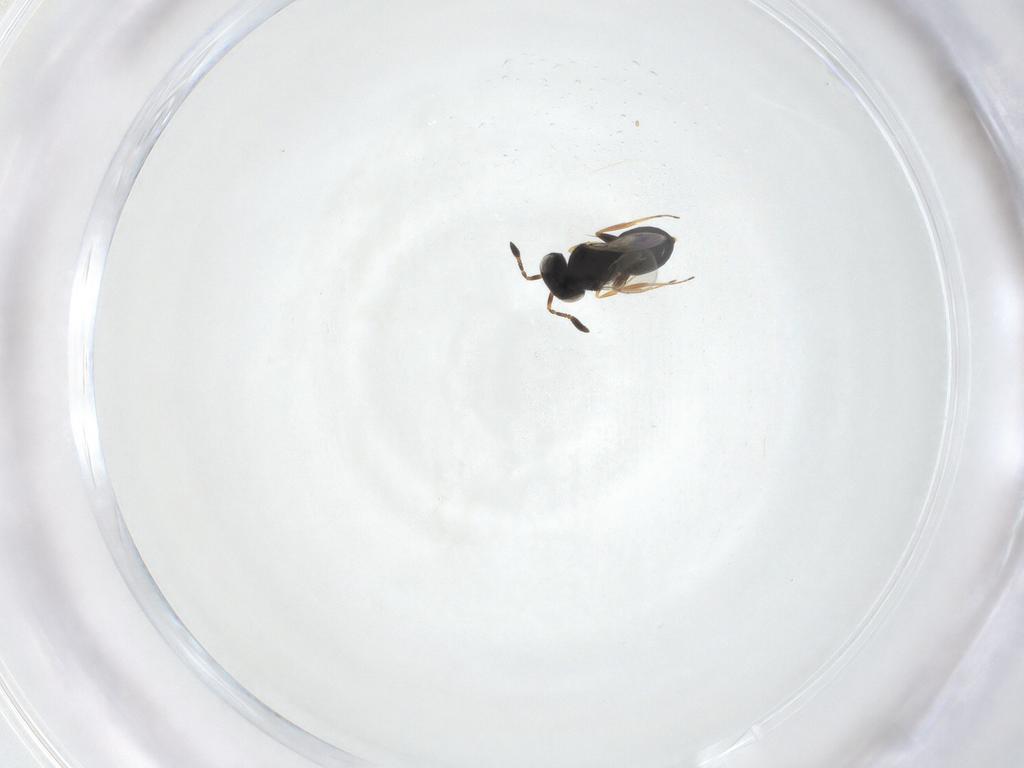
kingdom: Animalia
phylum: Arthropoda
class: Insecta
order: Hymenoptera
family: Scelionidae
